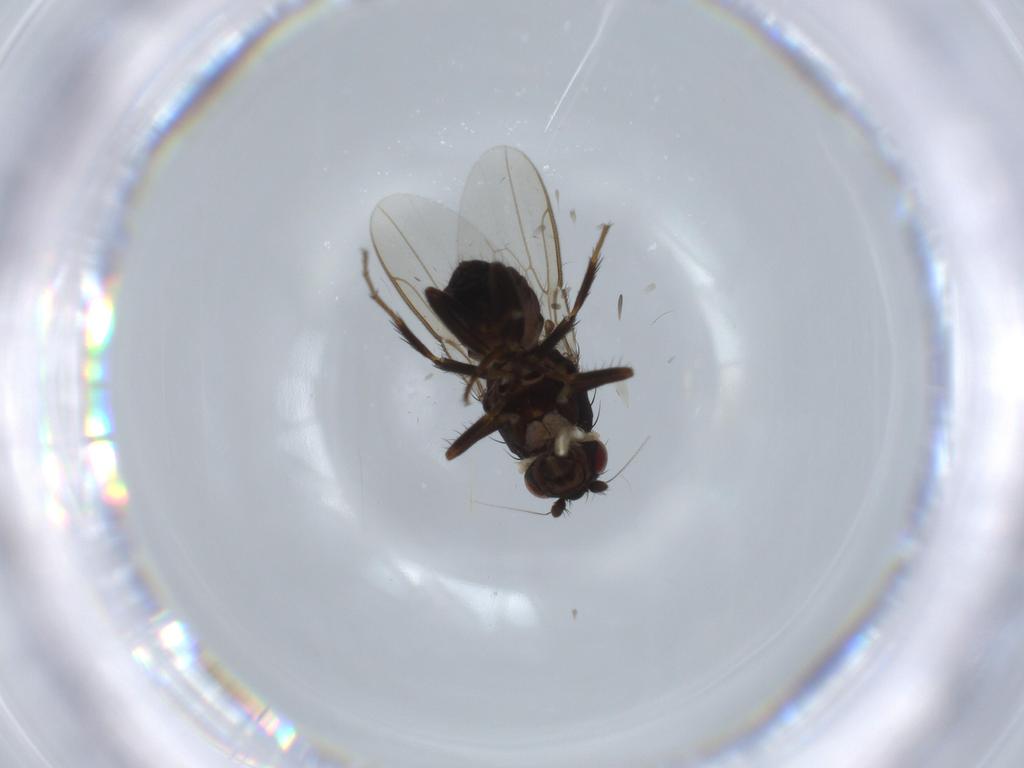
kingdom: Animalia
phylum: Arthropoda
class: Insecta
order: Diptera
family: Sphaeroceridae
